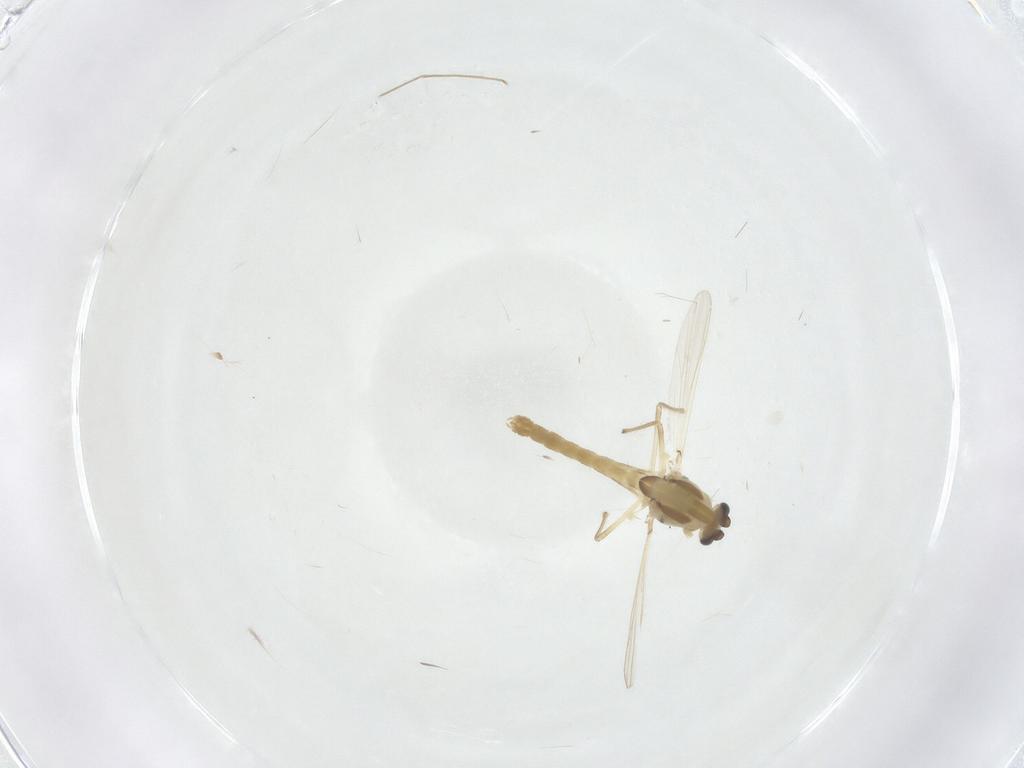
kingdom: Animalia
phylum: Arthropoda
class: Insecta
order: Diptera
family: Chironomidae
